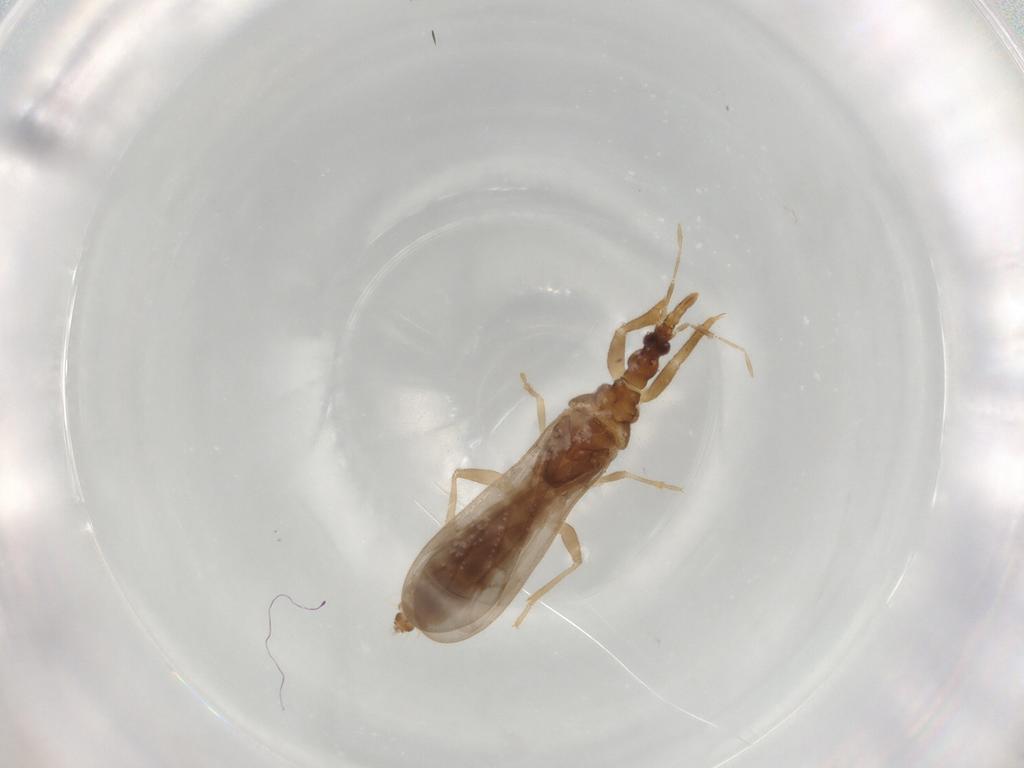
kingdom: Animalia
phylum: Arthropoda
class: Insecta
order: Hemiptera
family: Enicocephalidae
